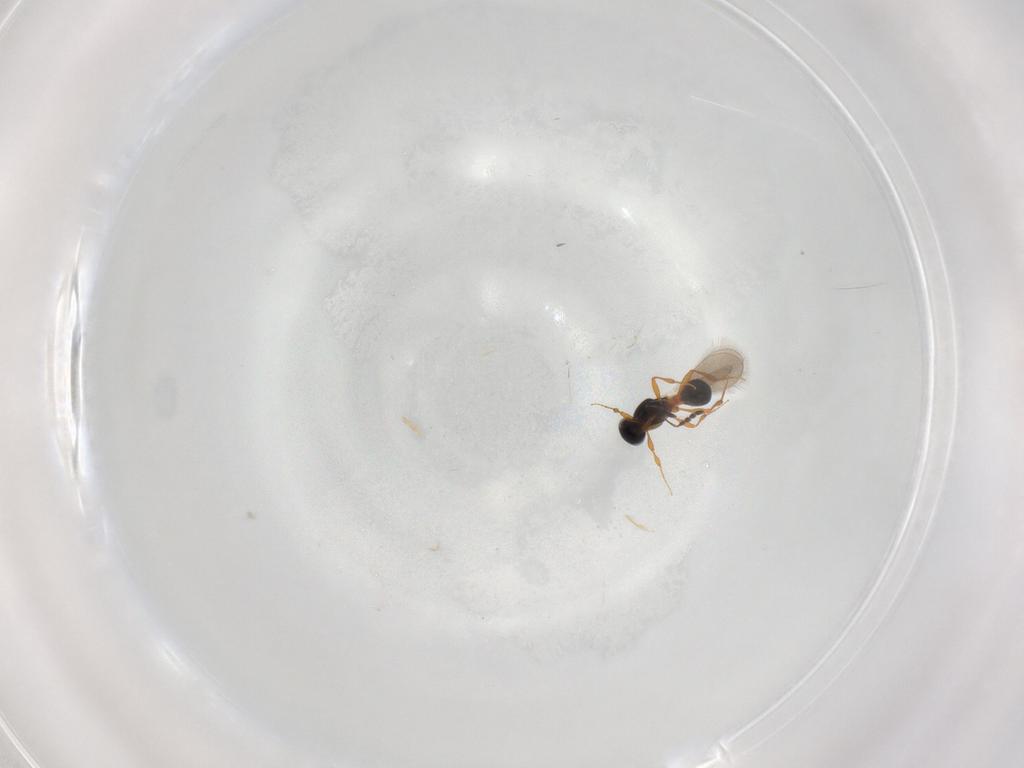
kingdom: Animalia
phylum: Arthropoda
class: Insecta
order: Hymenoptera
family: Platygastridae
